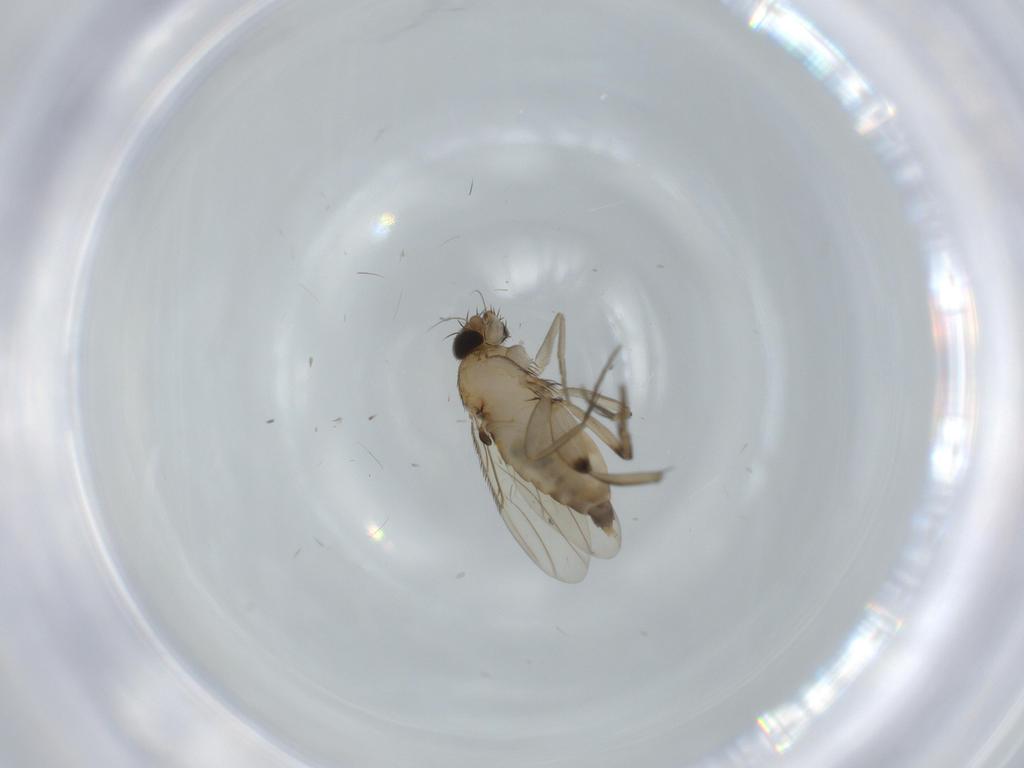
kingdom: Animalia
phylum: Arthropoda
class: Insecta
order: Diptera
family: Phoridae
